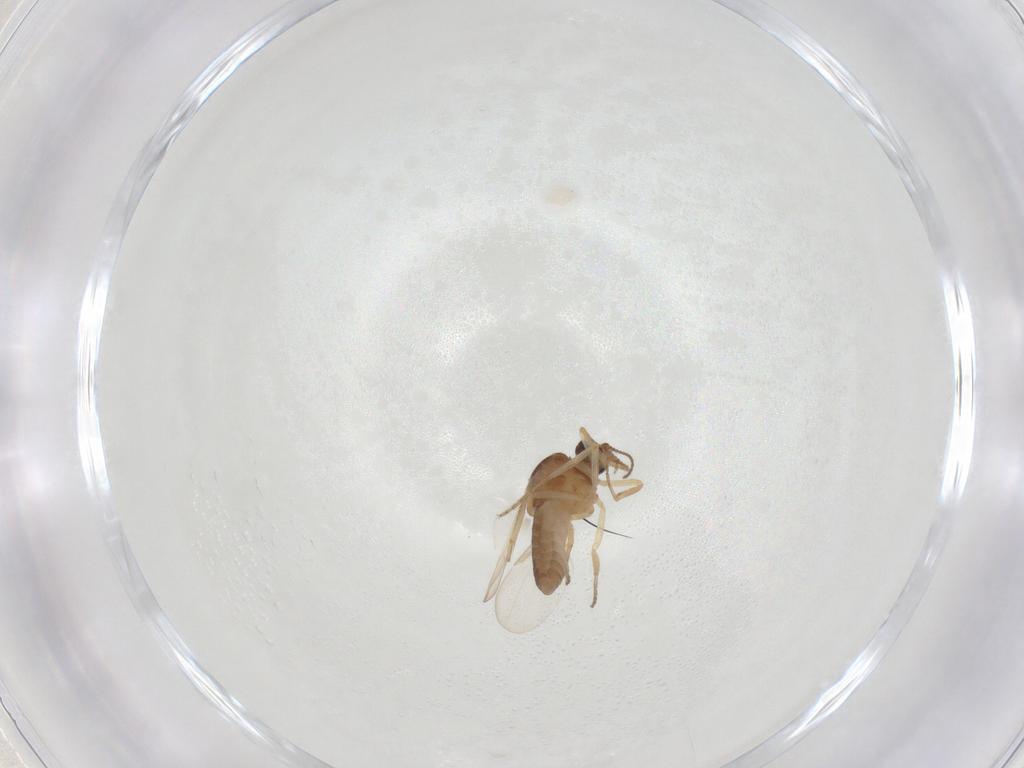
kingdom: Animalia
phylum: Arthropoda
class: Insecta
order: Diptera
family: Ceratopogonidae
